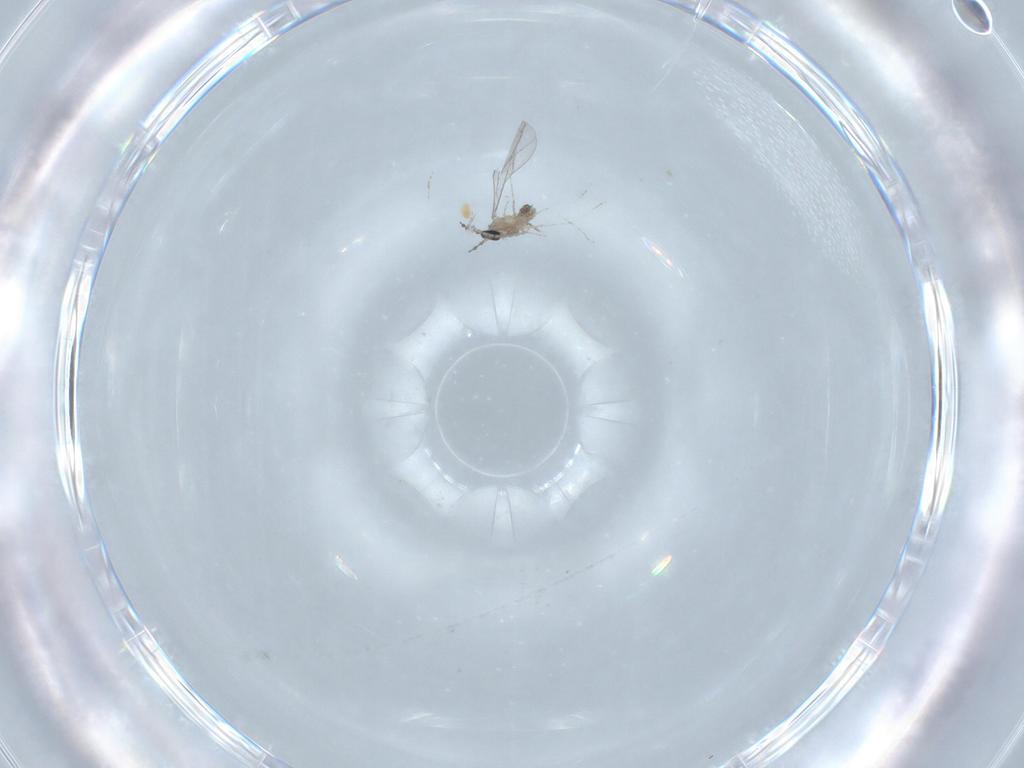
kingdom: Animalia
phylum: Arthropoda
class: Insecta
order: Diptera
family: Cecidomyiidae
